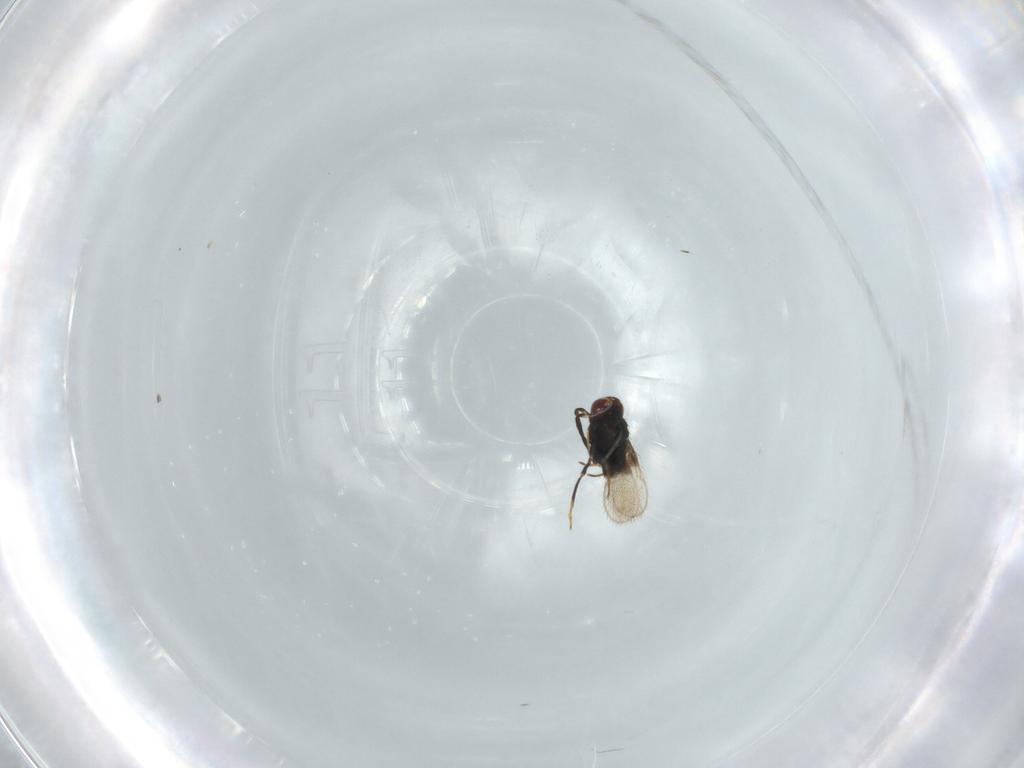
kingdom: Animalia
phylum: Arthropoda
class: Insecta
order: Hymenoptera
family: Azotidae
